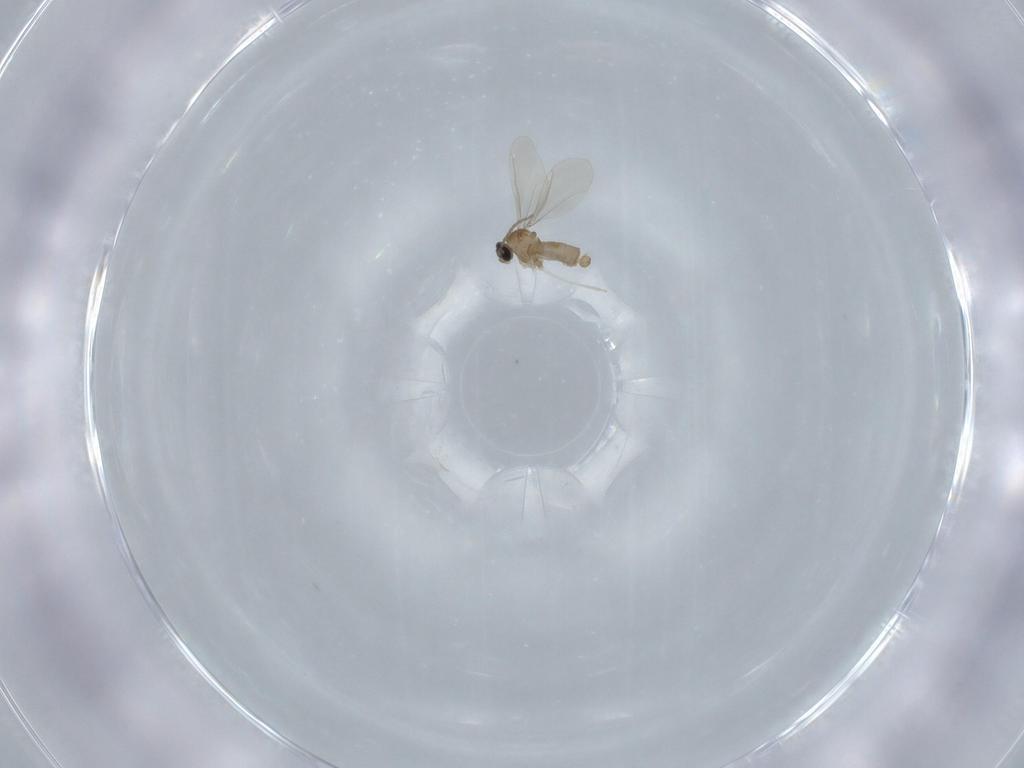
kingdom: Animalia
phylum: Arthropoda
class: Insecta
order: Diptera
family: Cecidomyiidae
